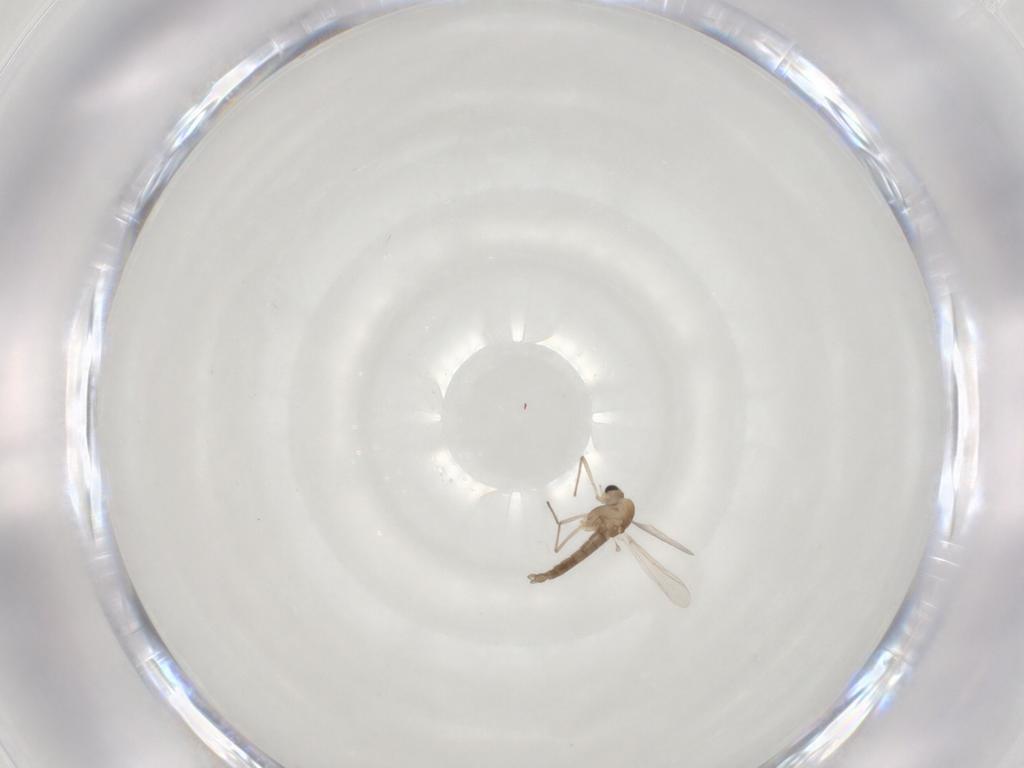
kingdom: Animalia
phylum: Arthropoda
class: Insecta
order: Diptera
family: Chironomidae
